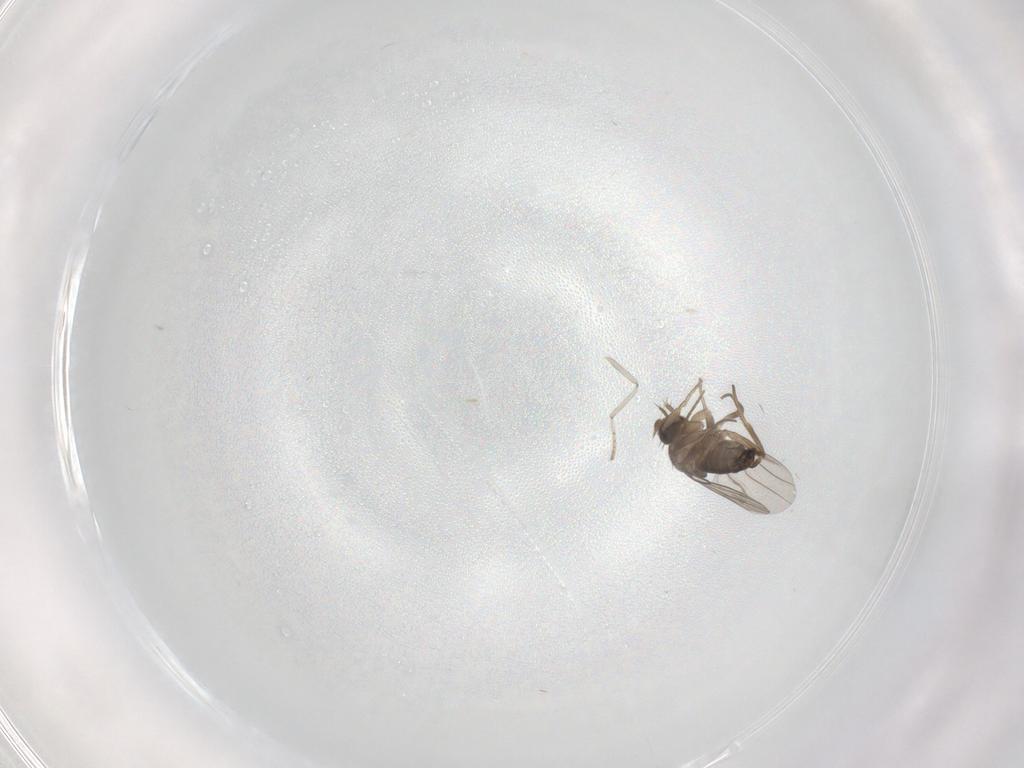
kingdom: Animalia
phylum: Arthropoda
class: Insecta
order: Diptera
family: Phoridae
